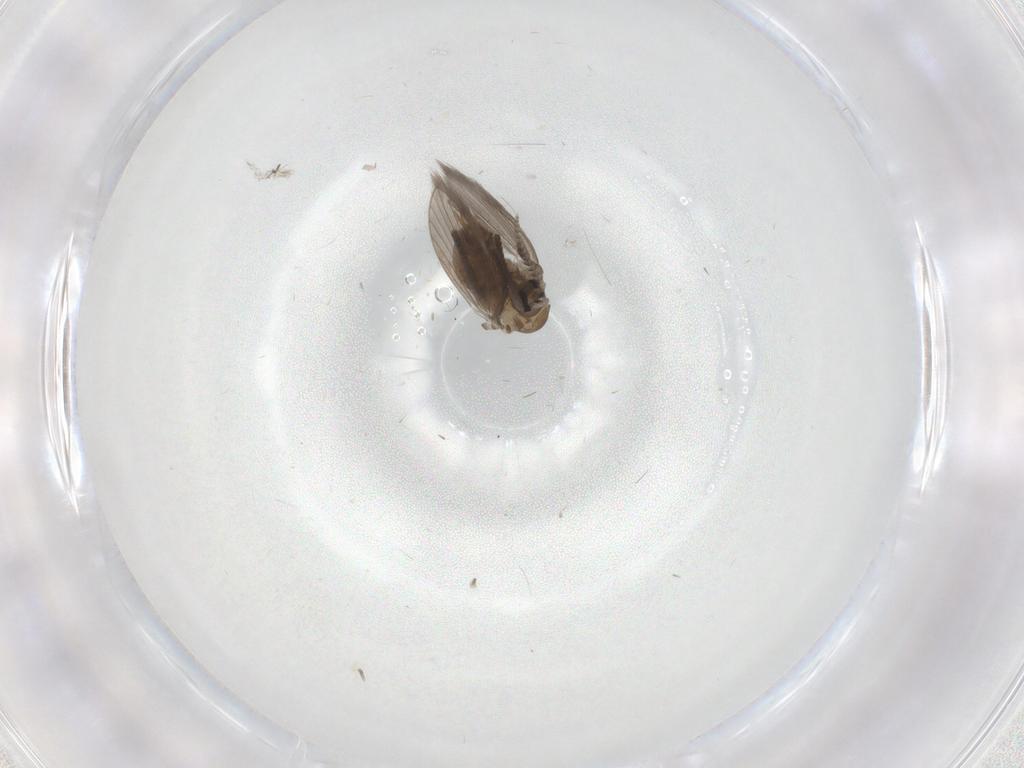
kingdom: Animalia
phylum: Arthropoda
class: Insecta
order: Diptera
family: Psychodidae
